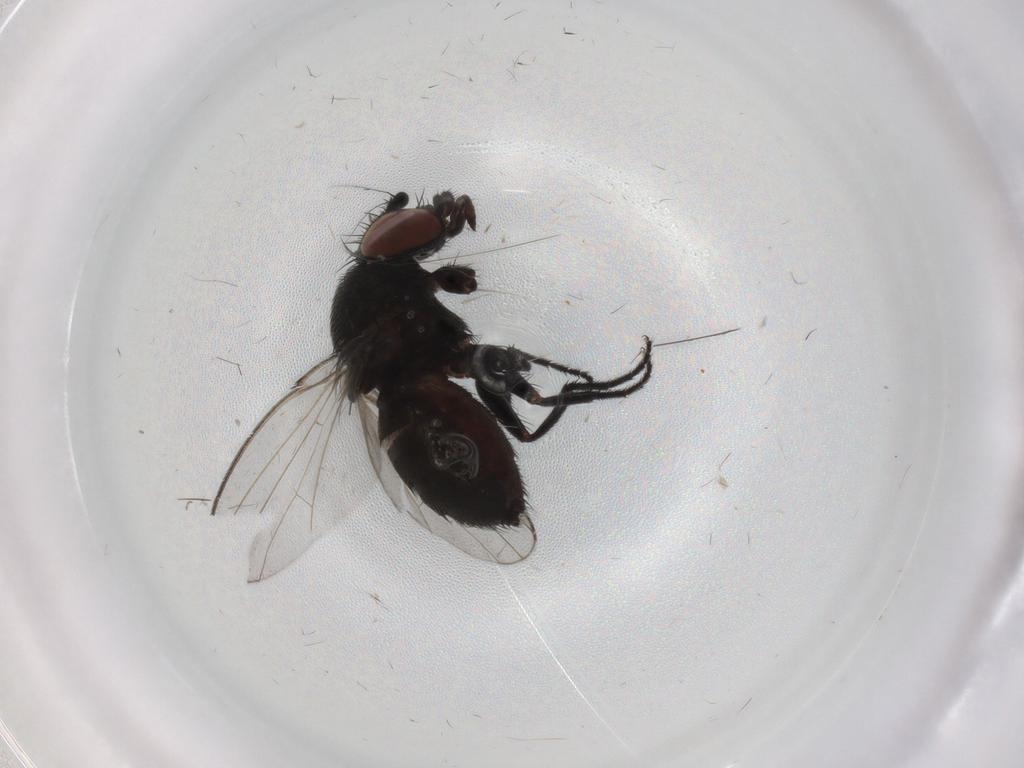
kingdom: Animalia
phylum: Arthropoda
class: Insecta
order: Diptera
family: Milichiidae
